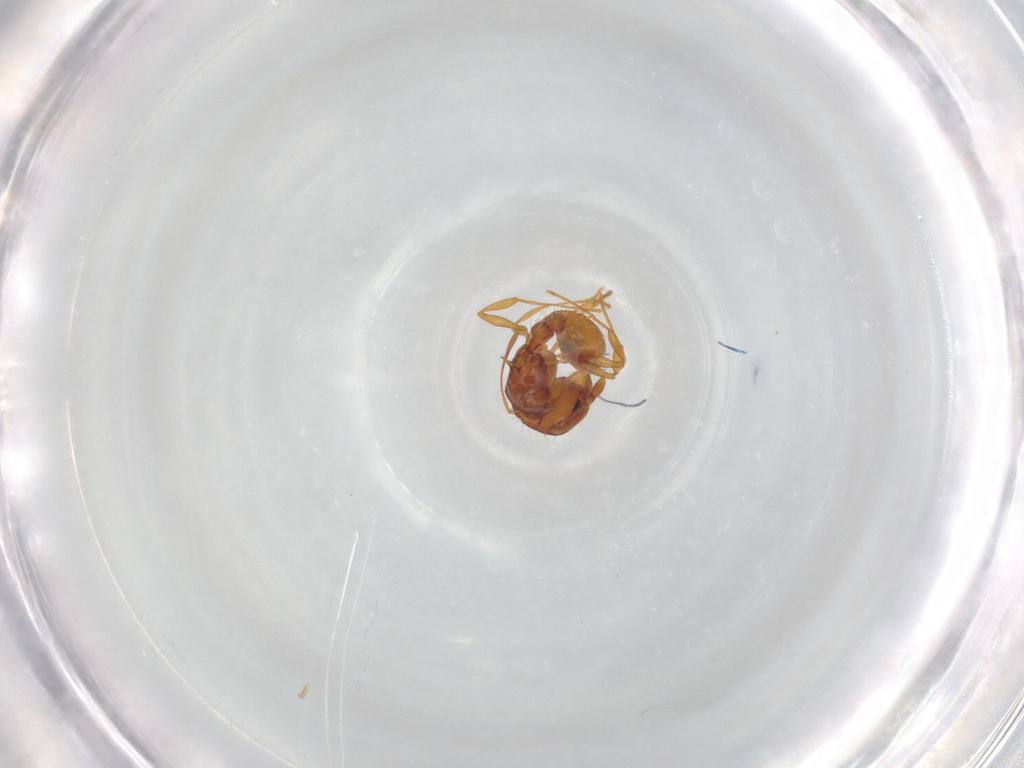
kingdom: Animalia
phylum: Arthropoda
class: Insecta
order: Hymenoptera
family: Formicidae
